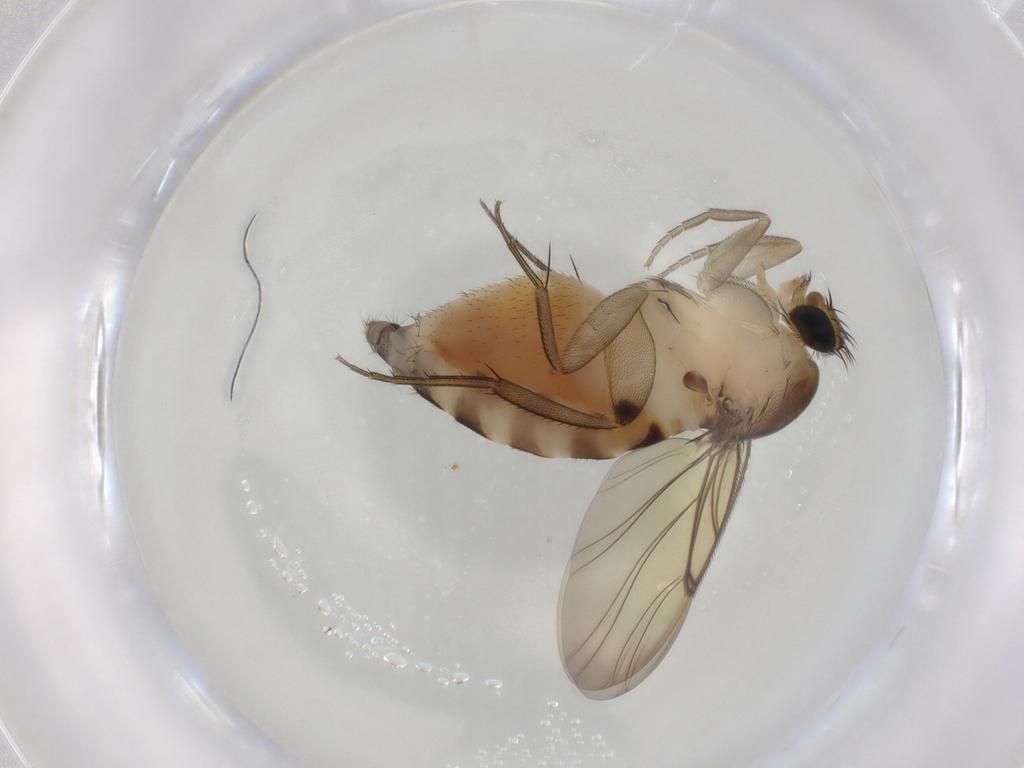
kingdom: Animalia
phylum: Arthropoda
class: Insecta
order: Diptera
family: Phoridae
